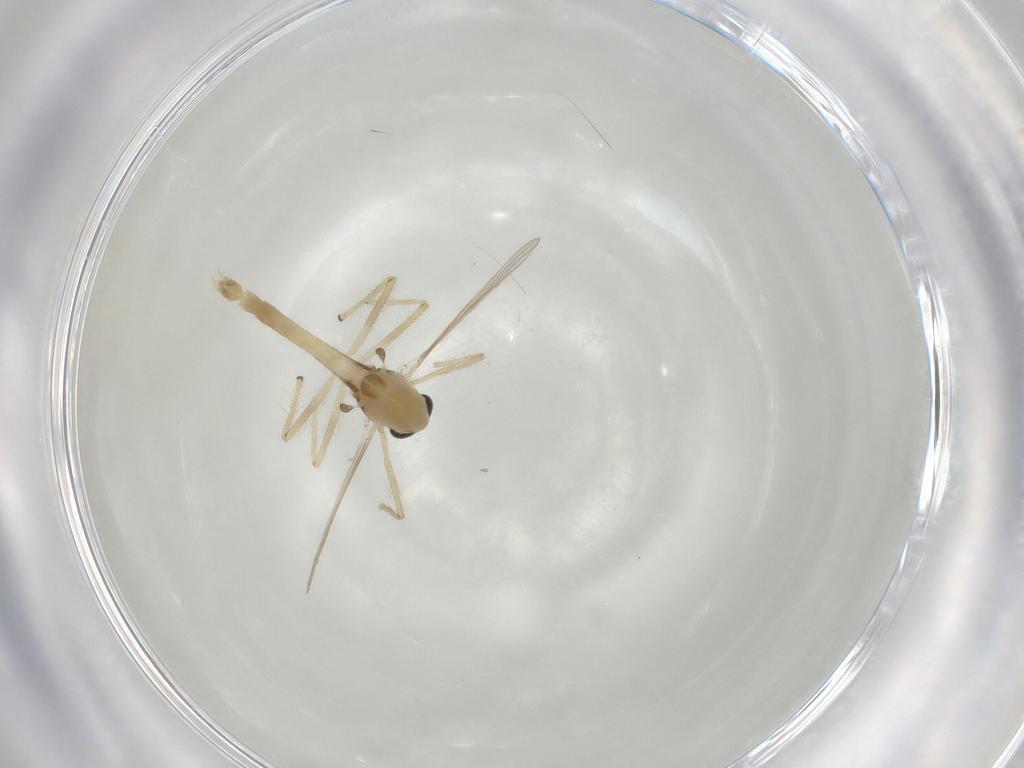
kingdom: Animalia
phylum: Arthropoda
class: Insecta
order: Diptera
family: Sciaridae
